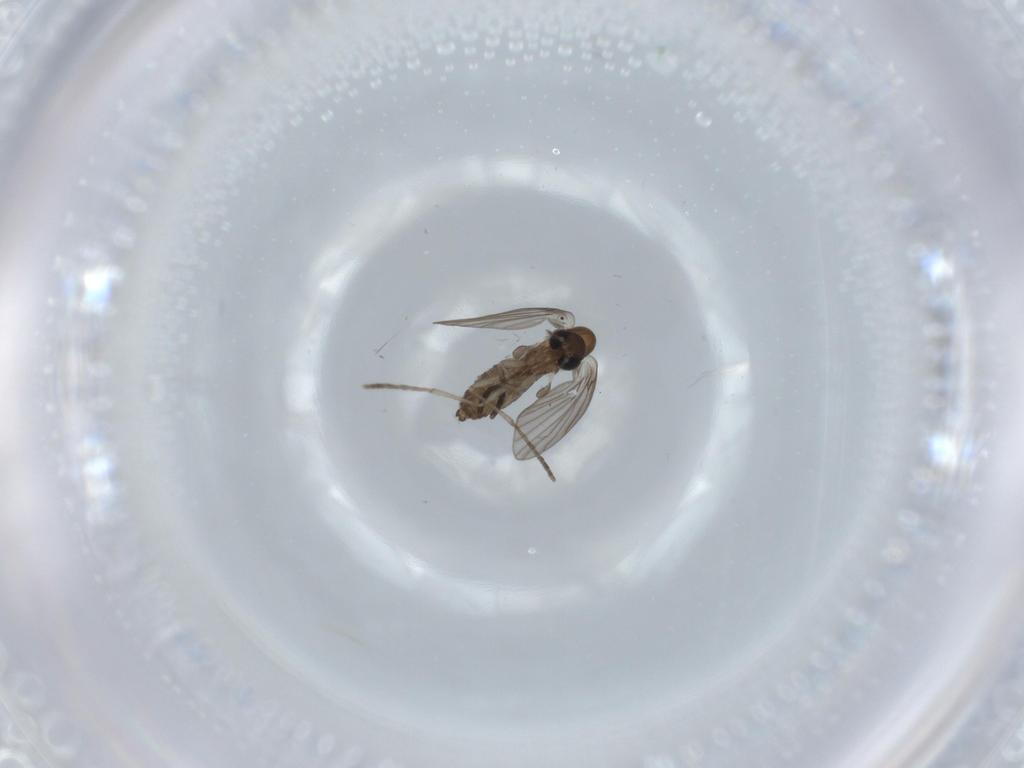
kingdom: Animalia
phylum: Arthropoda
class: Insecta
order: Diptera
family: Psychodidae
